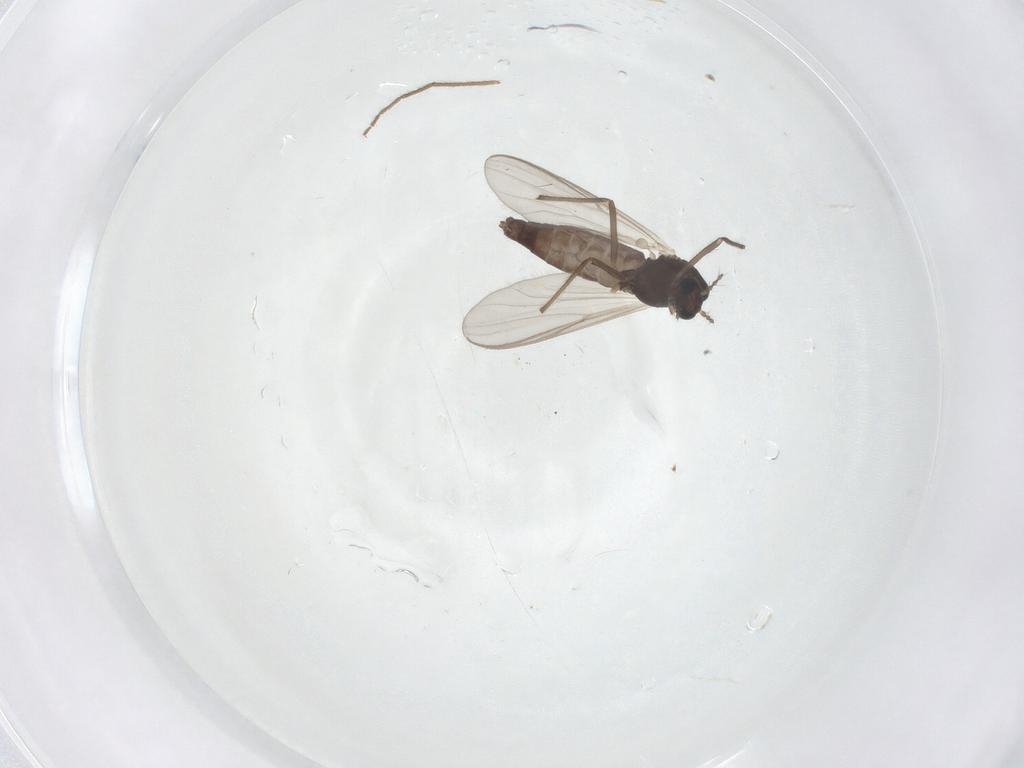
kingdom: Animalia
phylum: Arthropoda
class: Insecta
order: Diptera
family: Chironomidae
